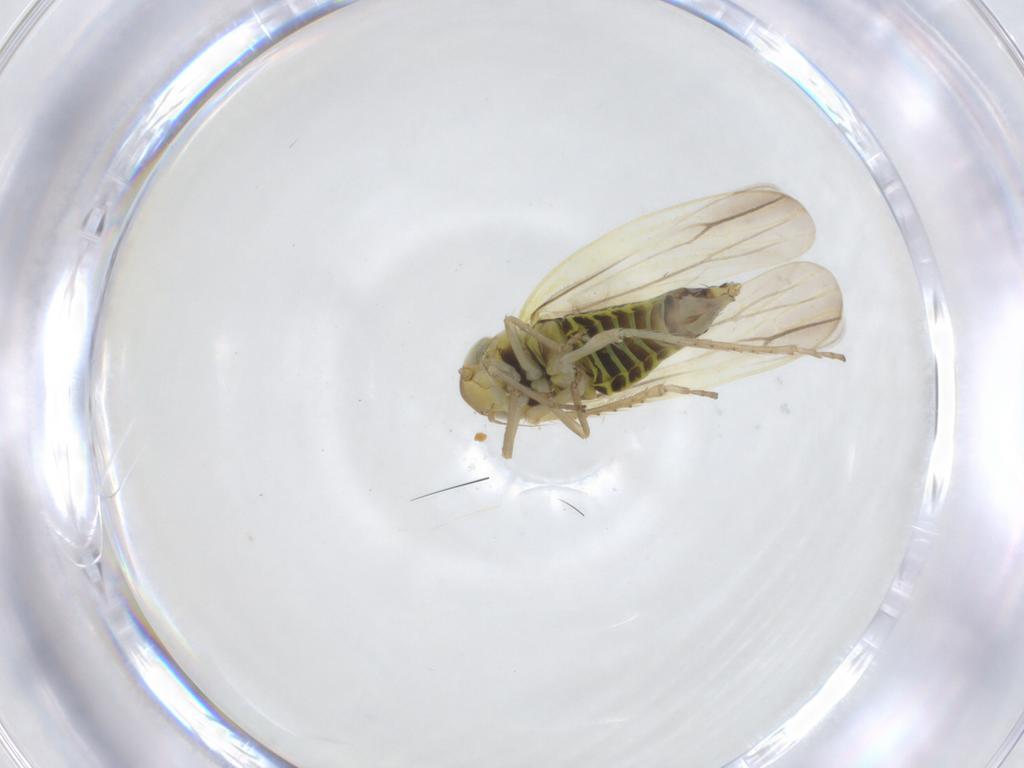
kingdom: Animalia
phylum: Arthropoda
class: Insecta
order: Hemiptera
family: Cicadellidae
